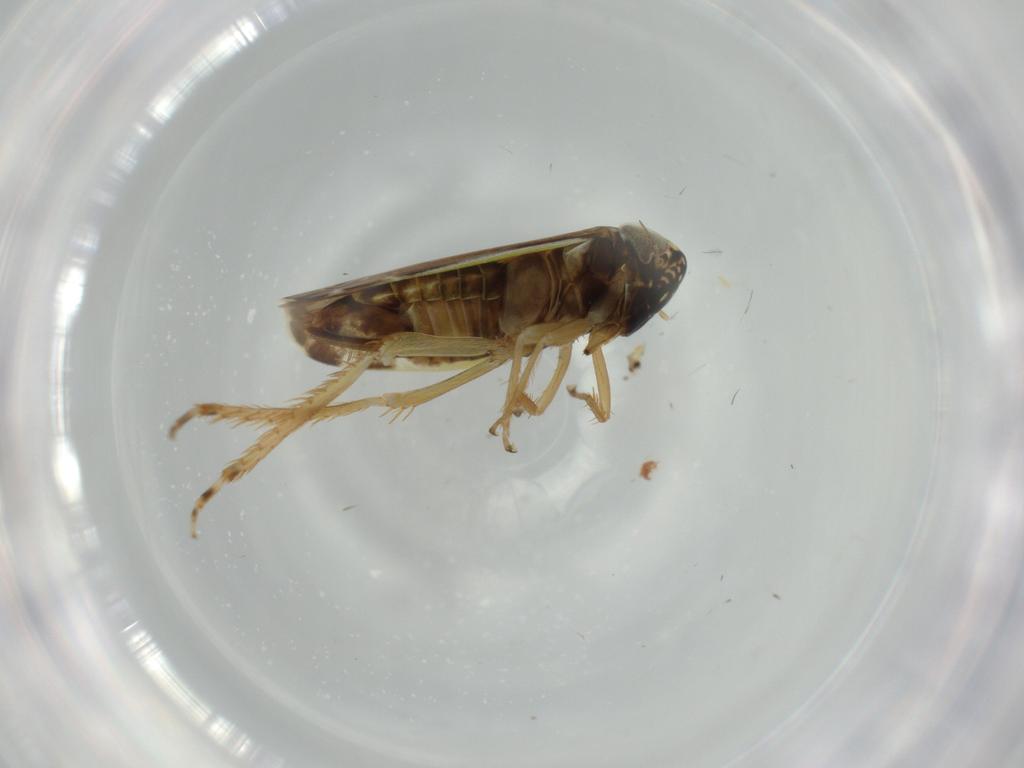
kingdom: Animalia
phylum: Arthropoda
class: Insecta
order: Hemiptera
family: Cicadellidae
